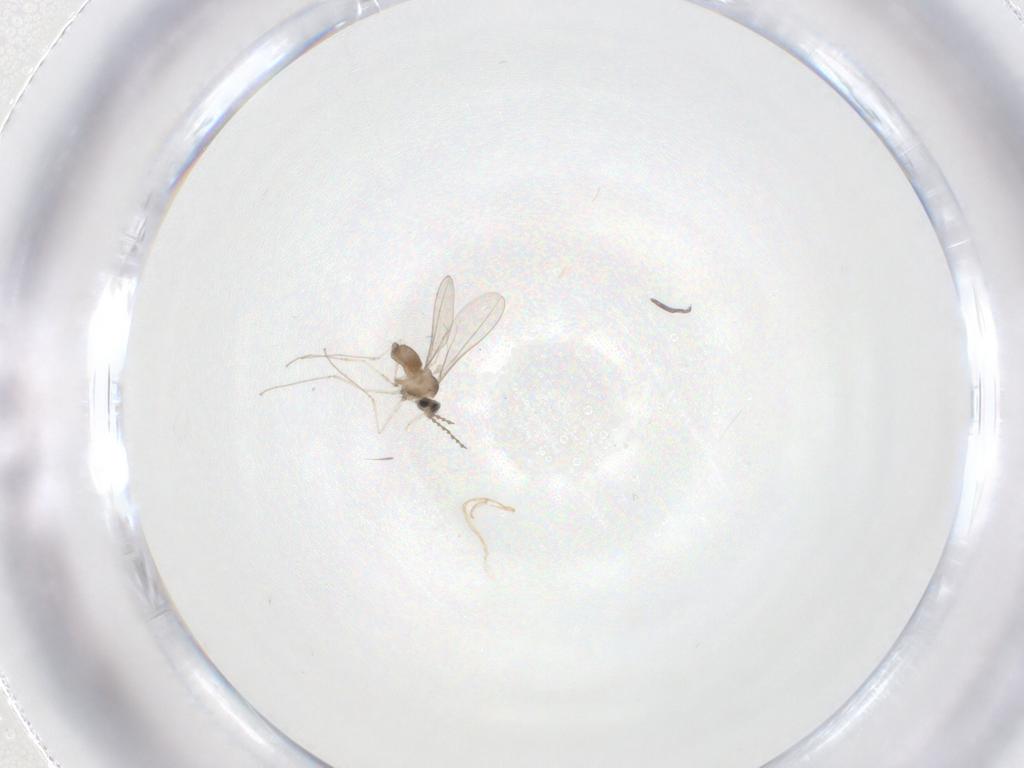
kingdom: Animalia
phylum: Arthropoda
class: Insecta
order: Diptera
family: Cecidomyiidae
